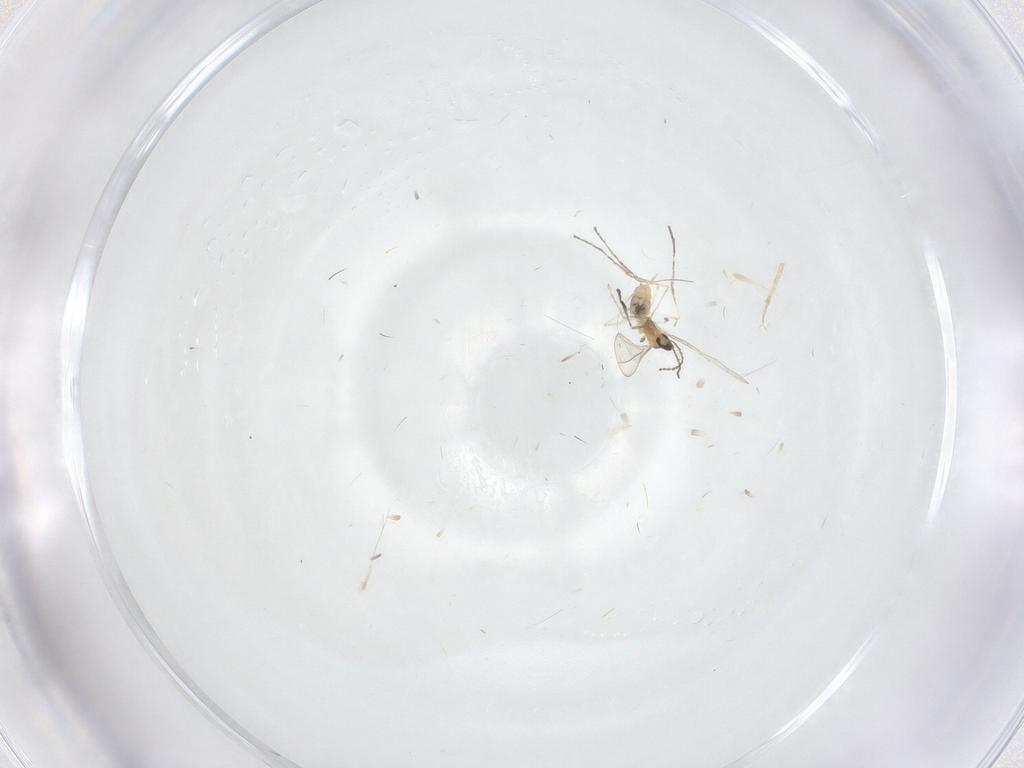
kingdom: Animalia
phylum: Arthropoda
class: Insecta
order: Diptera
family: Cecidomyiidae
